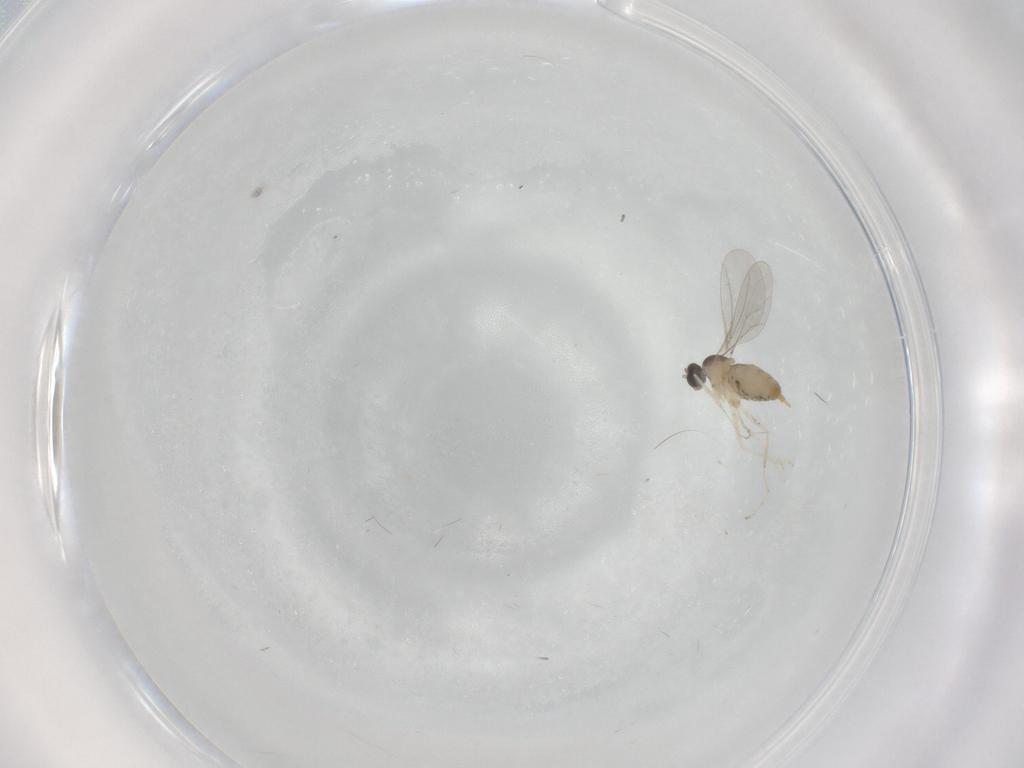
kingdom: Animalia
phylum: Arthropoda
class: Insecta
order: Diptera
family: Cecidomyiidae
